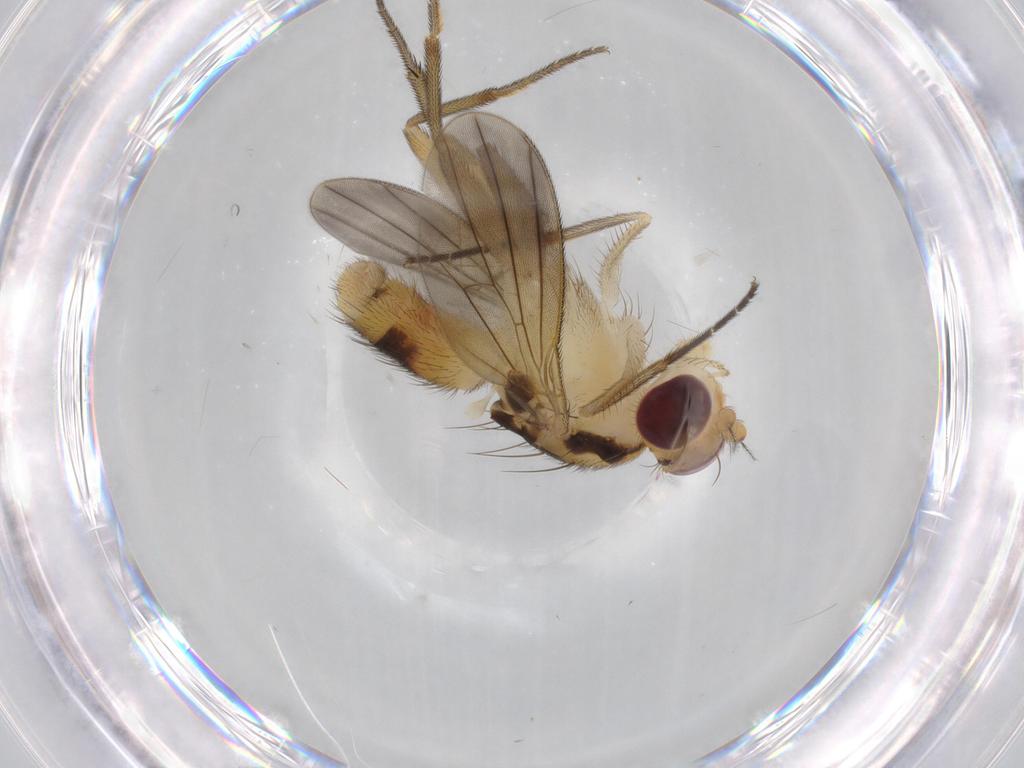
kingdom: Animalia
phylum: Arthropoda
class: Insecta
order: Diptera
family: Clusiidae
